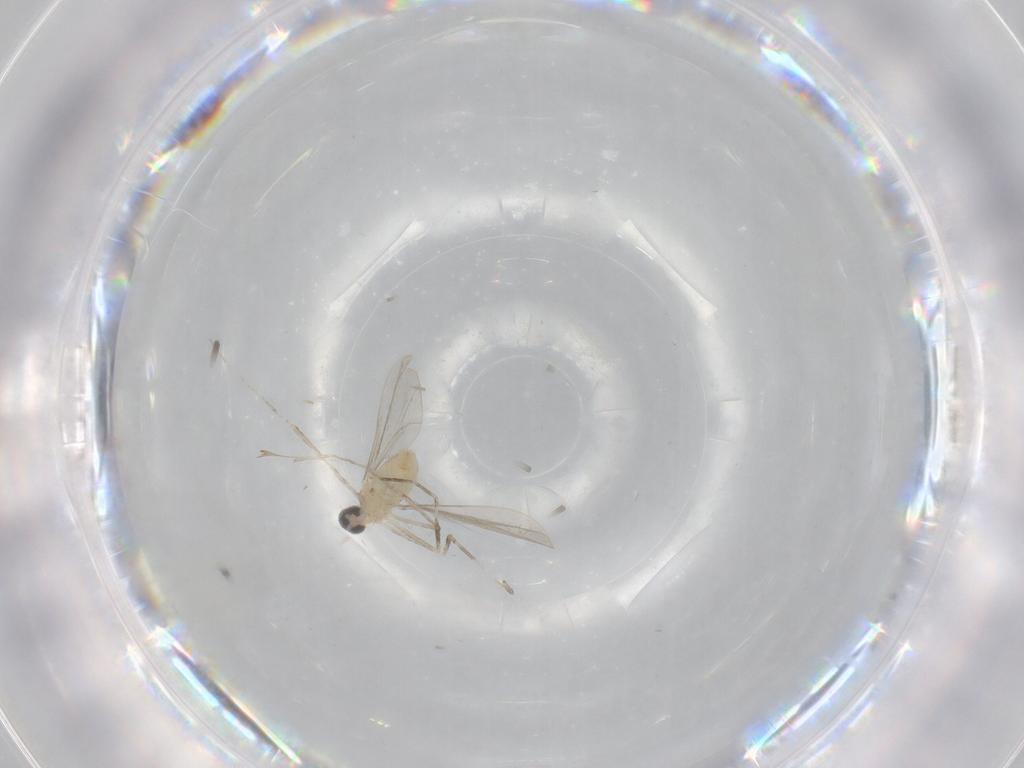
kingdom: Animalia
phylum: Arthropoda
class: Insecta
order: Diptera
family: Cecidomyiidae
